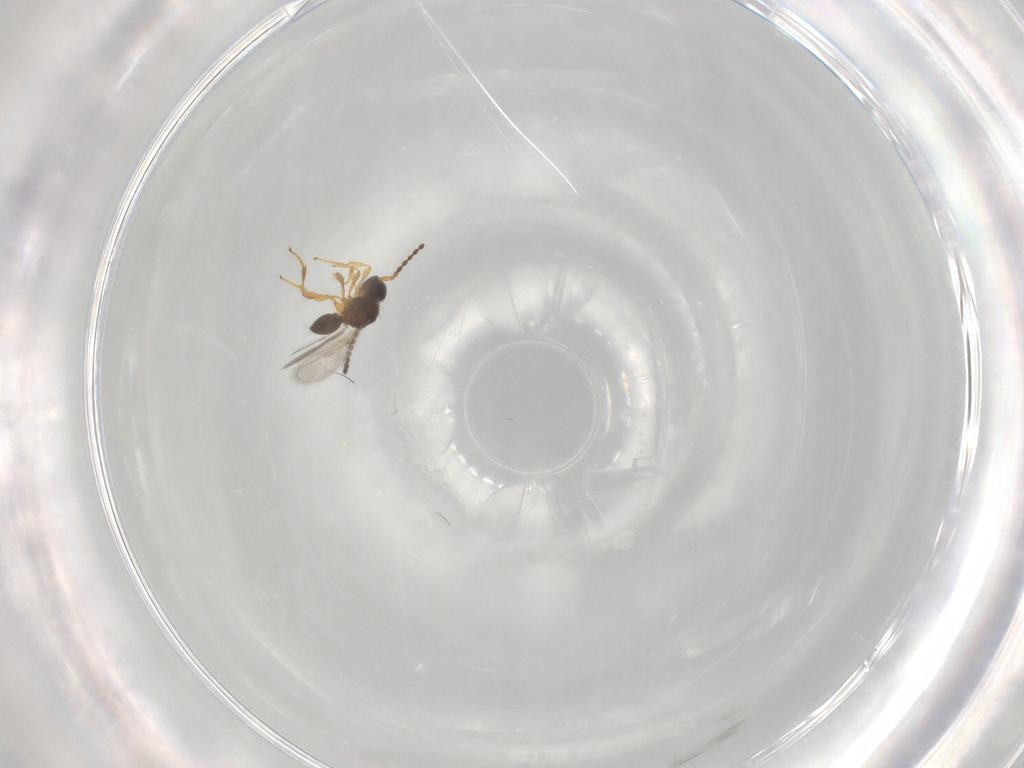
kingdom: Animalia
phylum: Arthropoda
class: Insecta
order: Hymenoptera
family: Diapriidae
